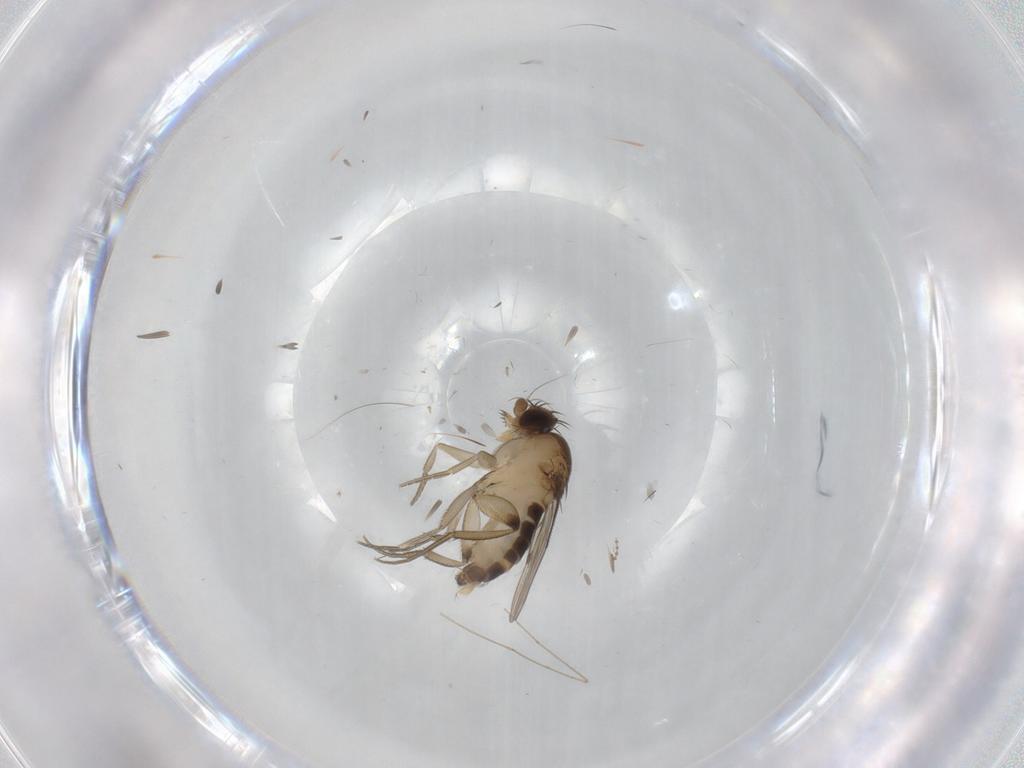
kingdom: Animalia
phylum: Arthropoda
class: Insecta
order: Diptera
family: Cecidomyiidae
